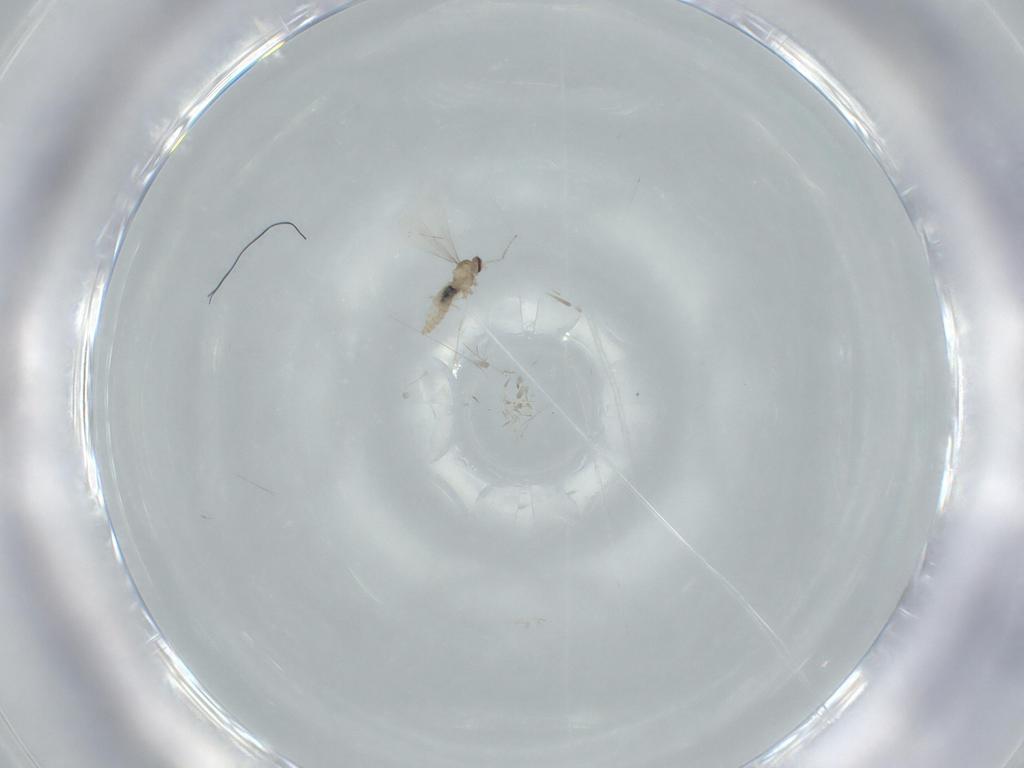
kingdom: Animalia
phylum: Arthropoda
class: Insecta
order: Diptera
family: Cecidomyiidae
